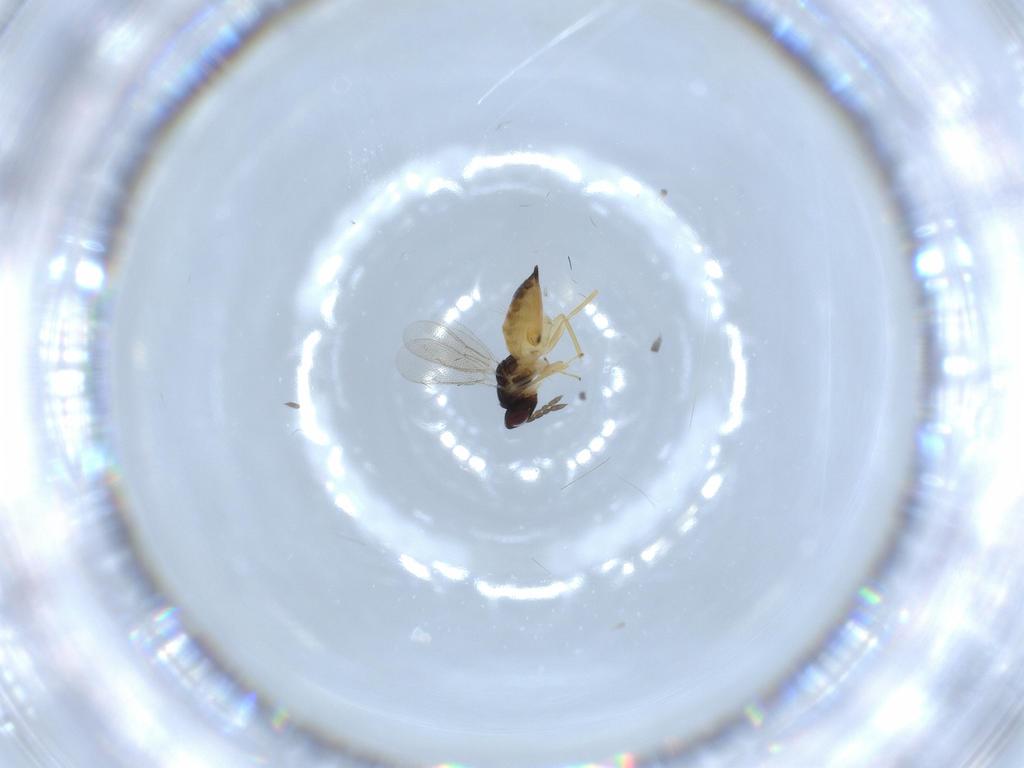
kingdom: Animalia
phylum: Arthropoda
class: Insecta
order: Hymenoptera
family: Eulophidae
